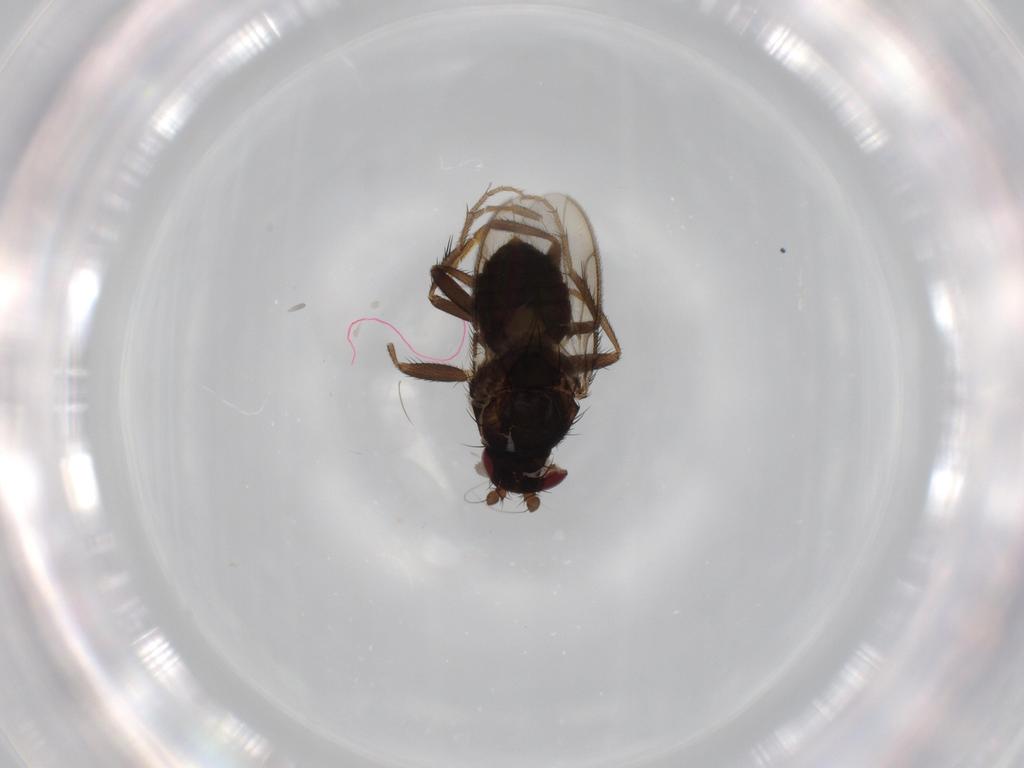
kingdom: Animalia
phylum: Arthropoda
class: Insecta
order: Diptera
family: Sphaeroceridae
